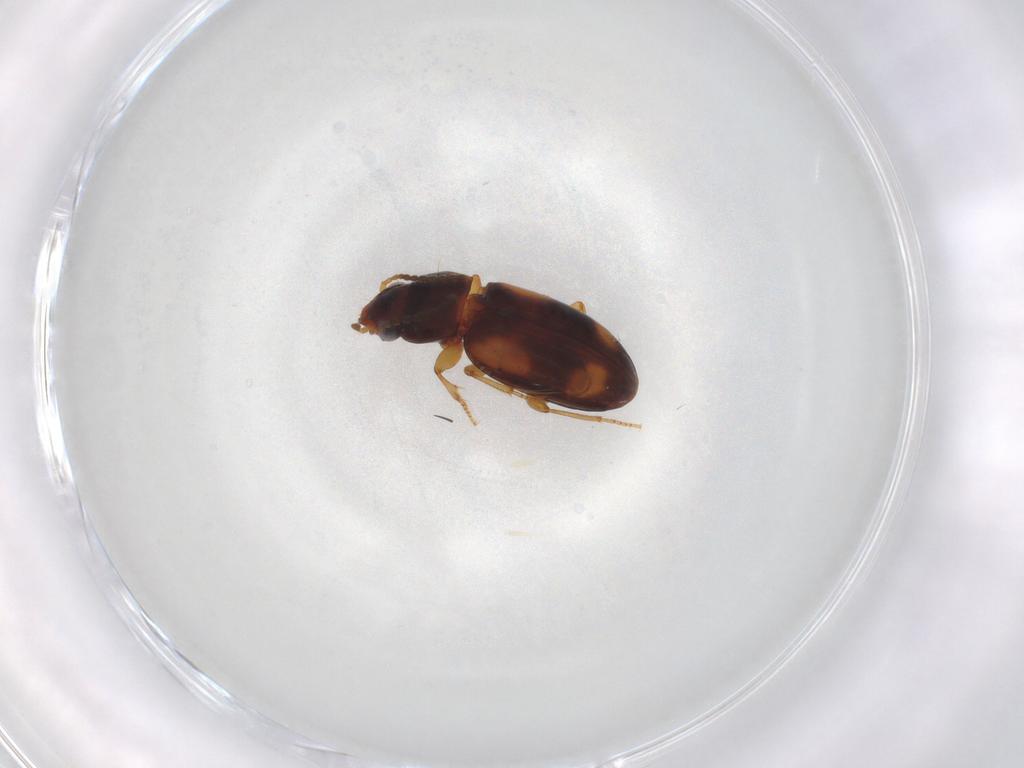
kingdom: Animalia
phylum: Arthropoda
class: Insecta
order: Coleoptera
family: Carabidae
